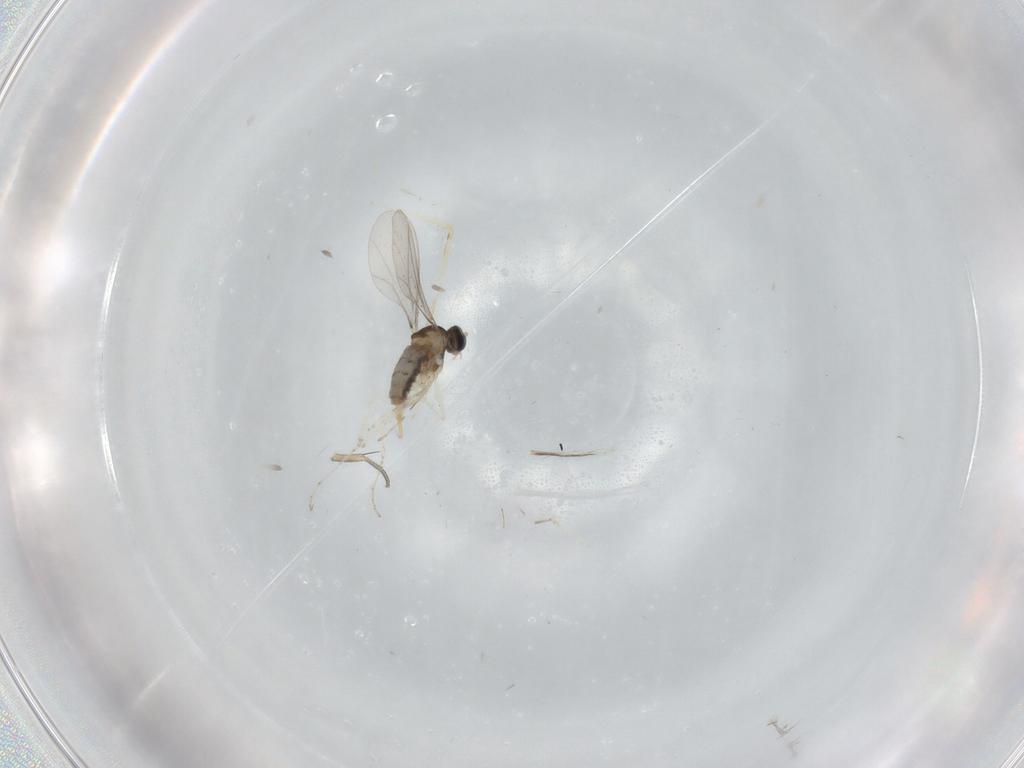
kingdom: Animalia
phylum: Arthropoda
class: Insecta
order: Diptera
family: Cecidomyiidae
